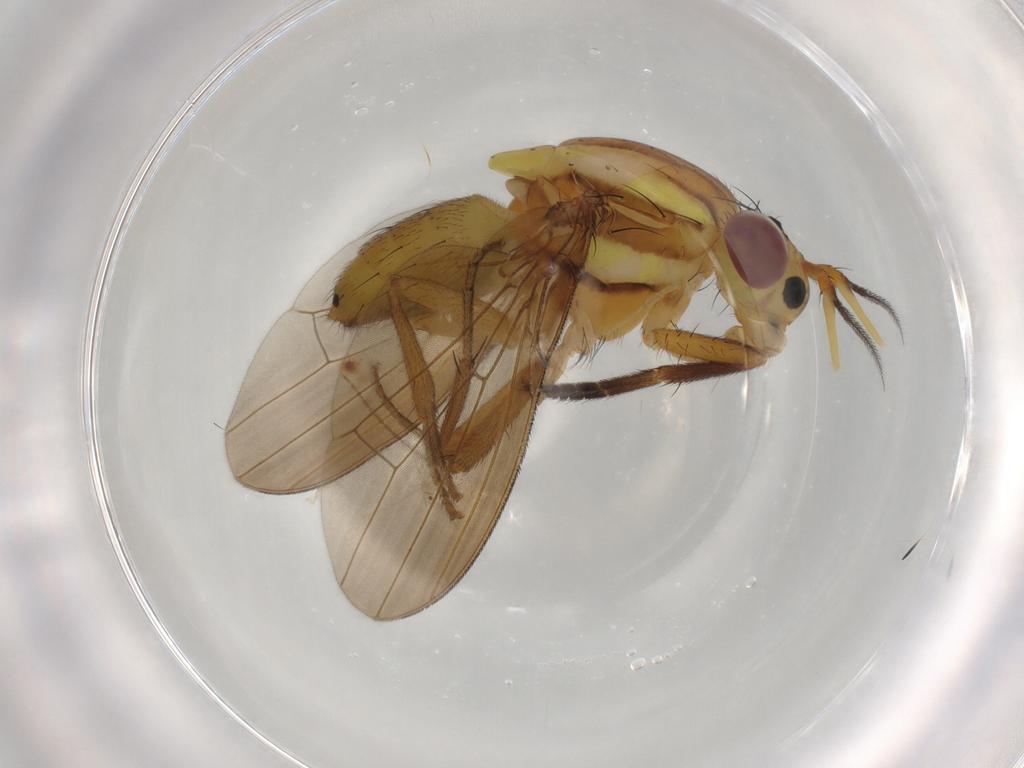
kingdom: Animalia
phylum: Arthropoda
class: Insecta
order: Diptera
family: Lauxaniidae
